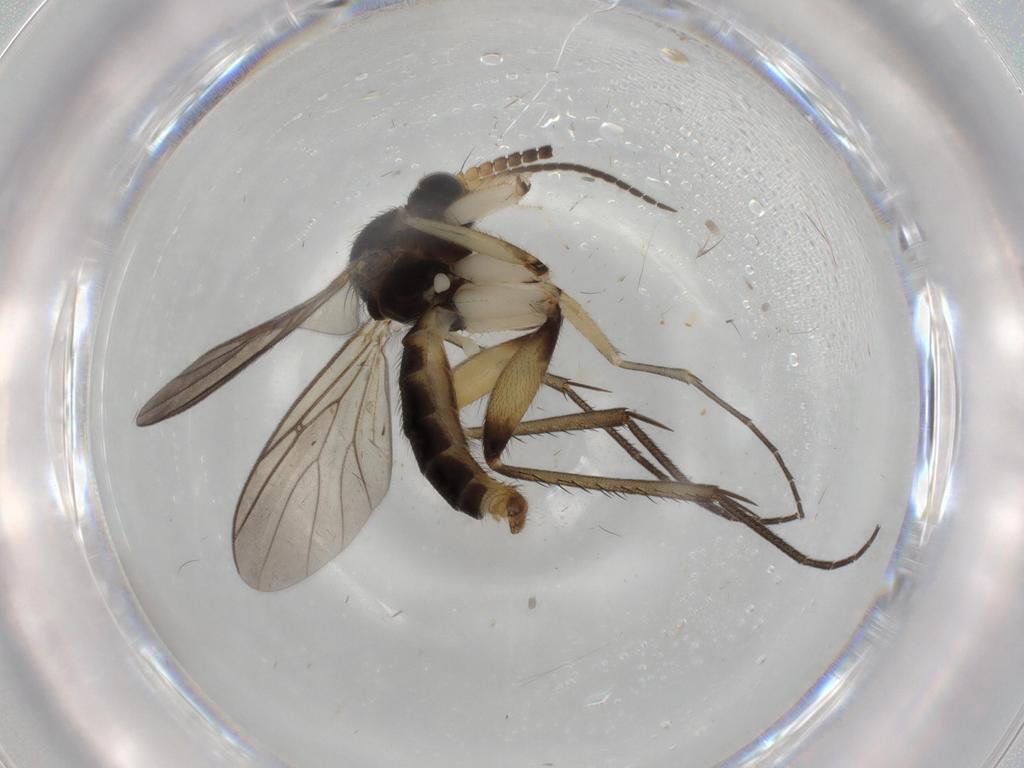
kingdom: Animalia
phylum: Arthropoda
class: Insecta
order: Diptera
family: Phoridae
